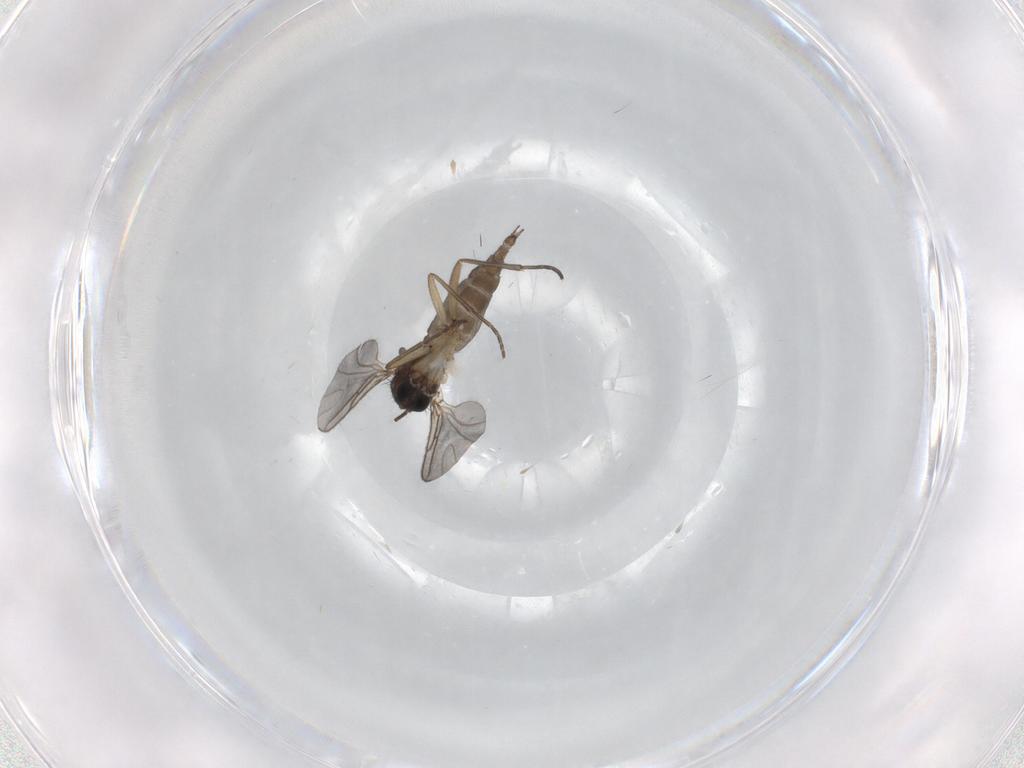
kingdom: Animalia
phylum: Arthropoda
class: Insecta
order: Diptera
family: Sciaridae
